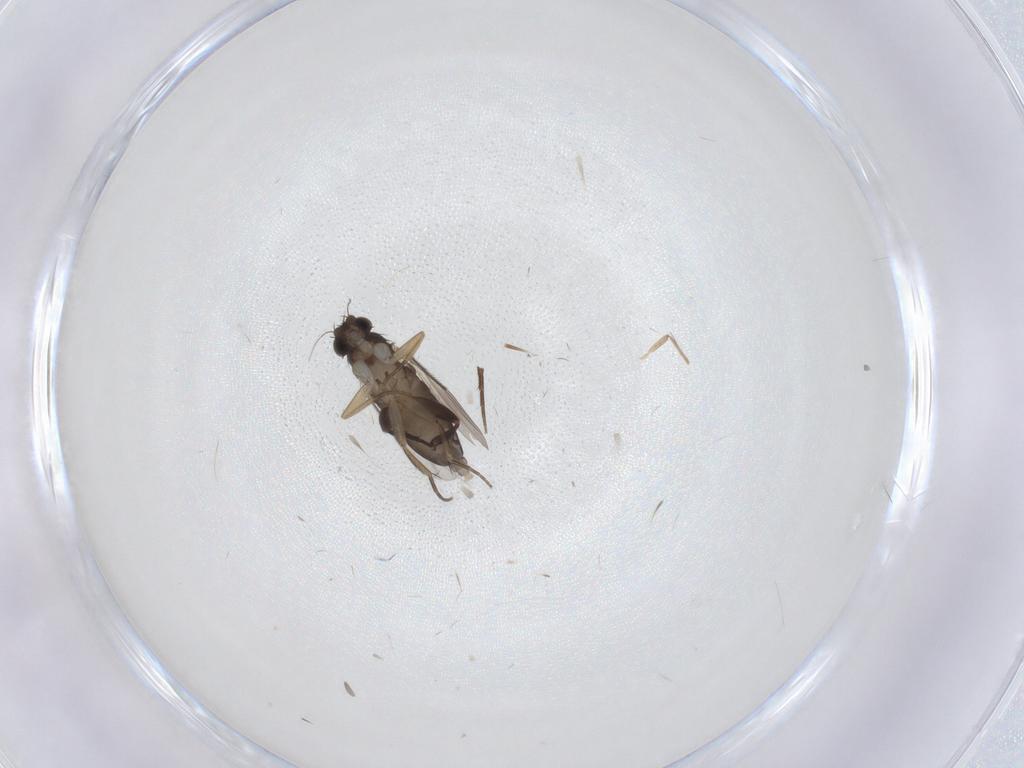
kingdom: Animalia
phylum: Arthropoda
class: Insecta
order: Diptera
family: Phoridae
